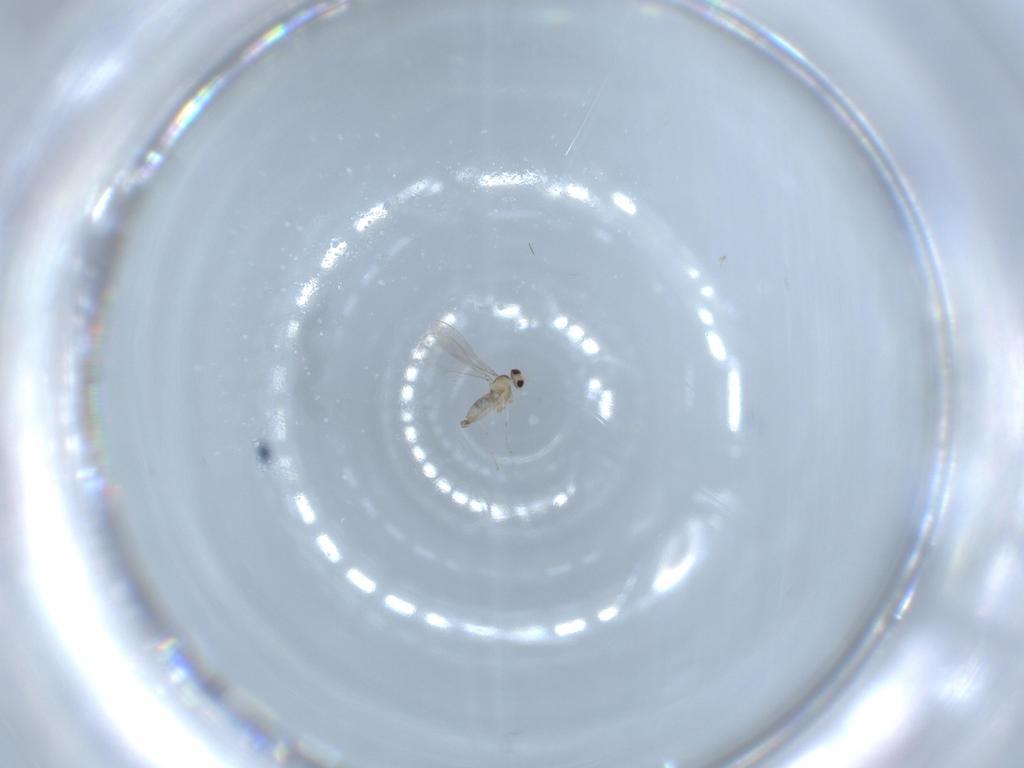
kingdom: Animalia
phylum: Arthropoda
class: Insecta
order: Diptera
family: Cecidomyiidae
